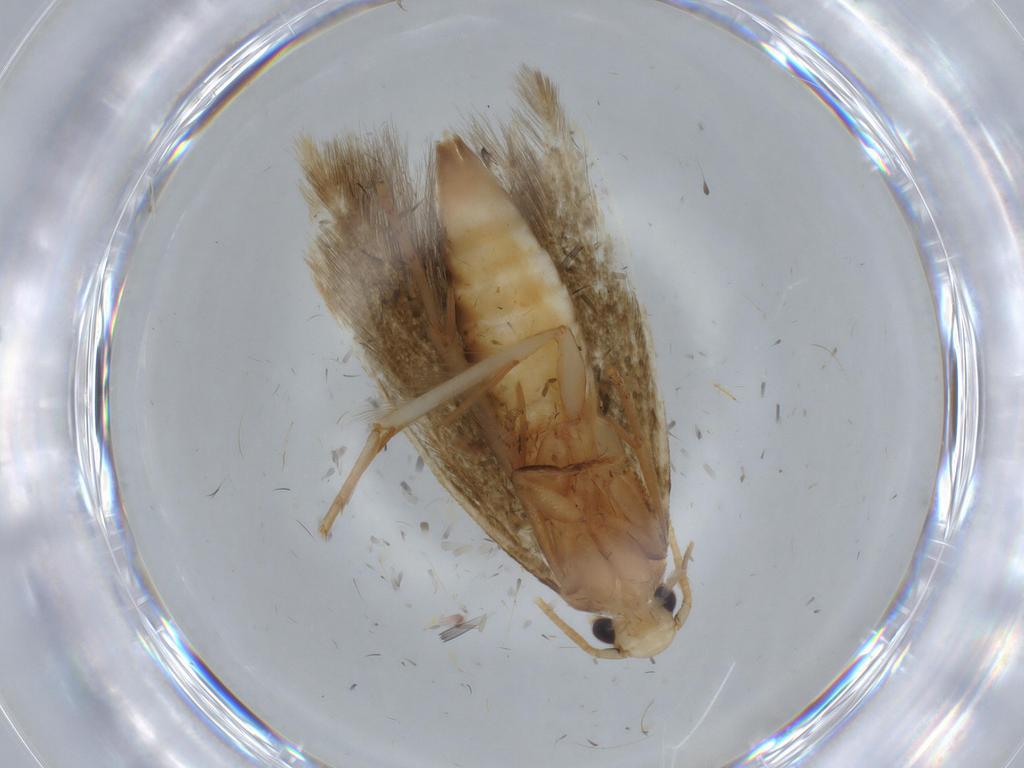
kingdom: Animalia
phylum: Arthropoda
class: Insecta
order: Lepidoptera
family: Tineidae
